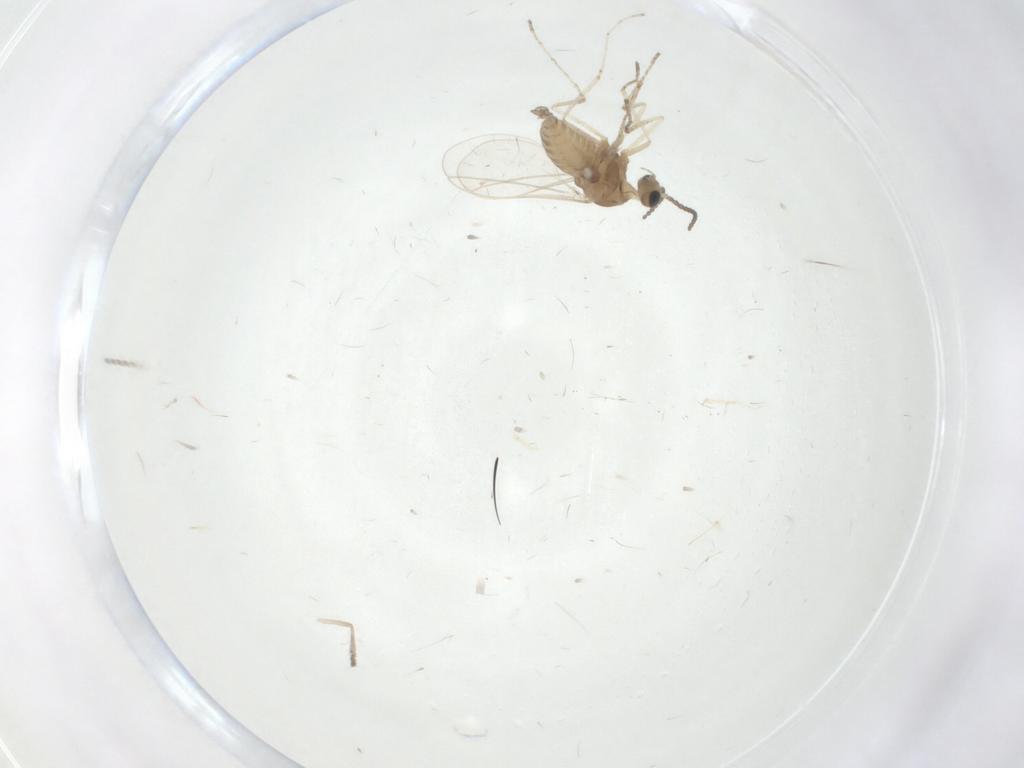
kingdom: Animalia
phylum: Arthropoda
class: Insecta
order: Diptera
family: Psychodidae
